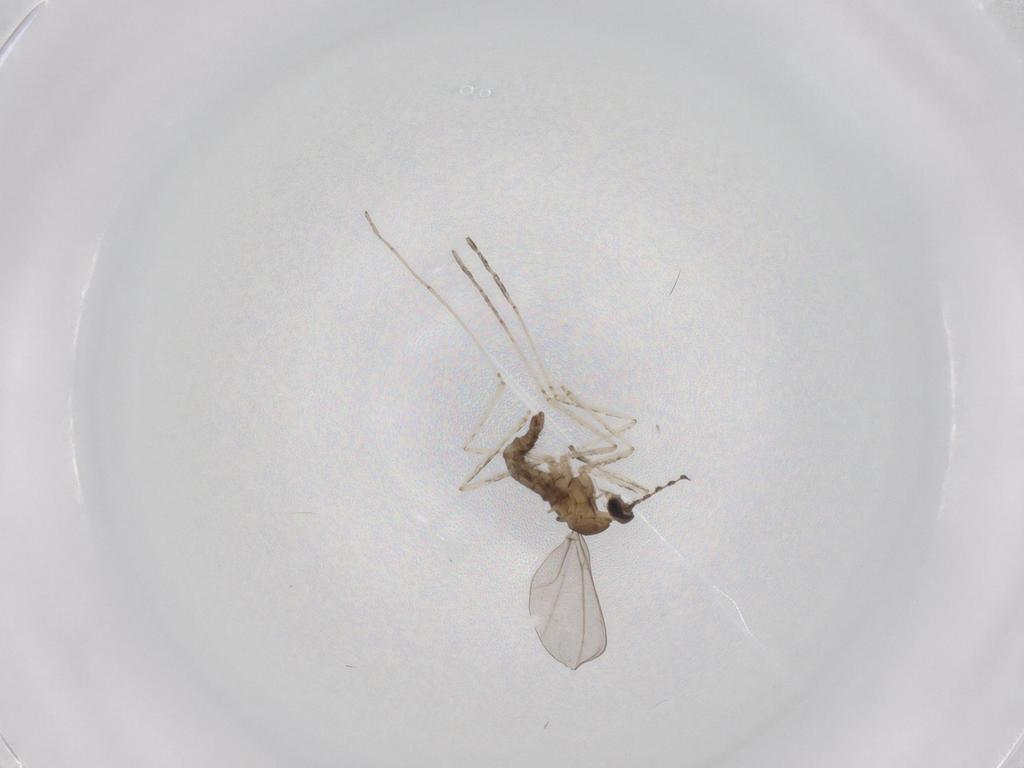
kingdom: Animalia
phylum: Arthropoda
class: Insecta
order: Diptera
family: Cecidomyiidae
